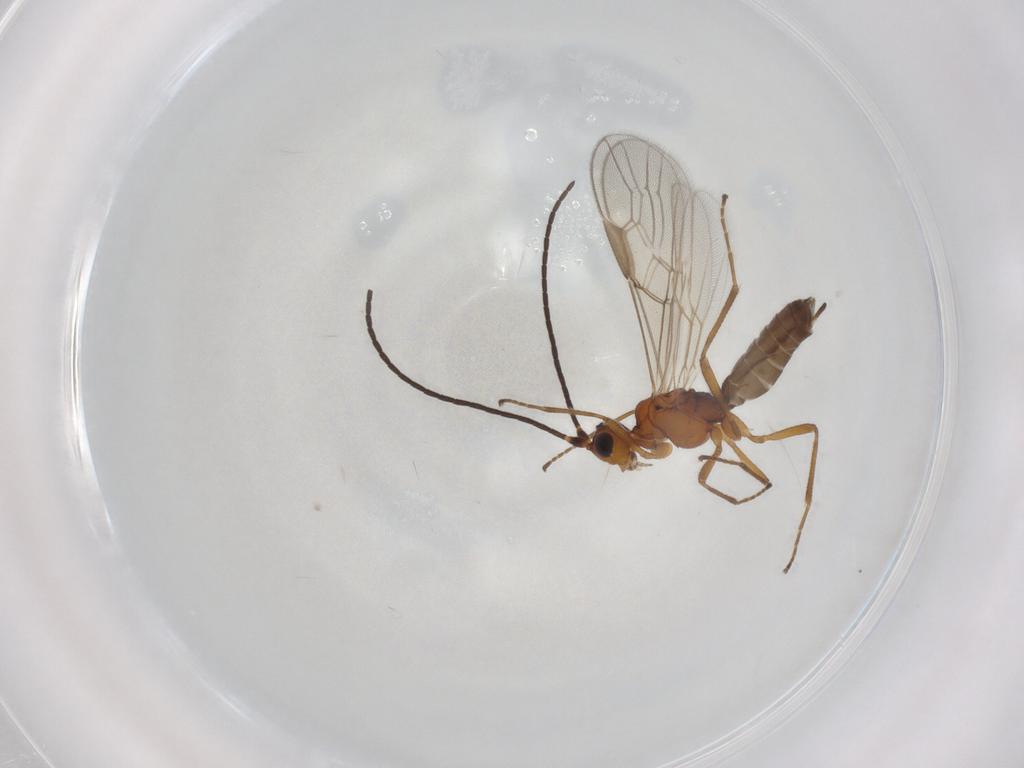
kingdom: Animalia
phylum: Arthropoda
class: Insecta
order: Hymenoptera
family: Braconidae
